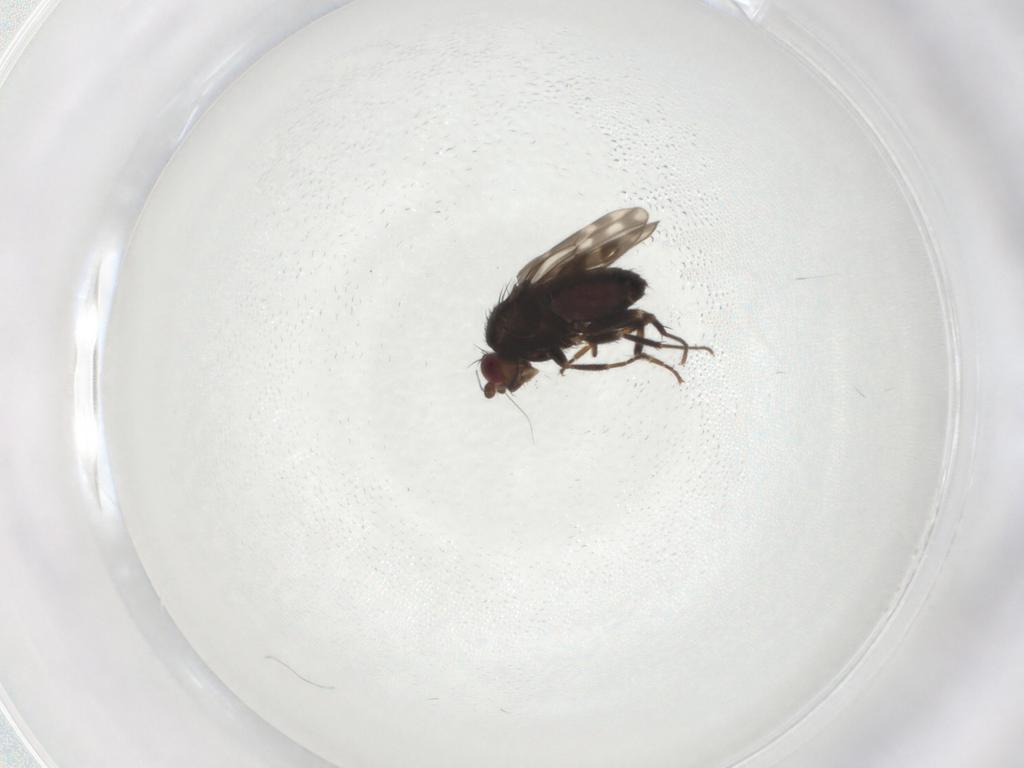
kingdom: Animalia
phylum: Arthropoda
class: Insecta
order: Diptera
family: Sphaeroceridae
